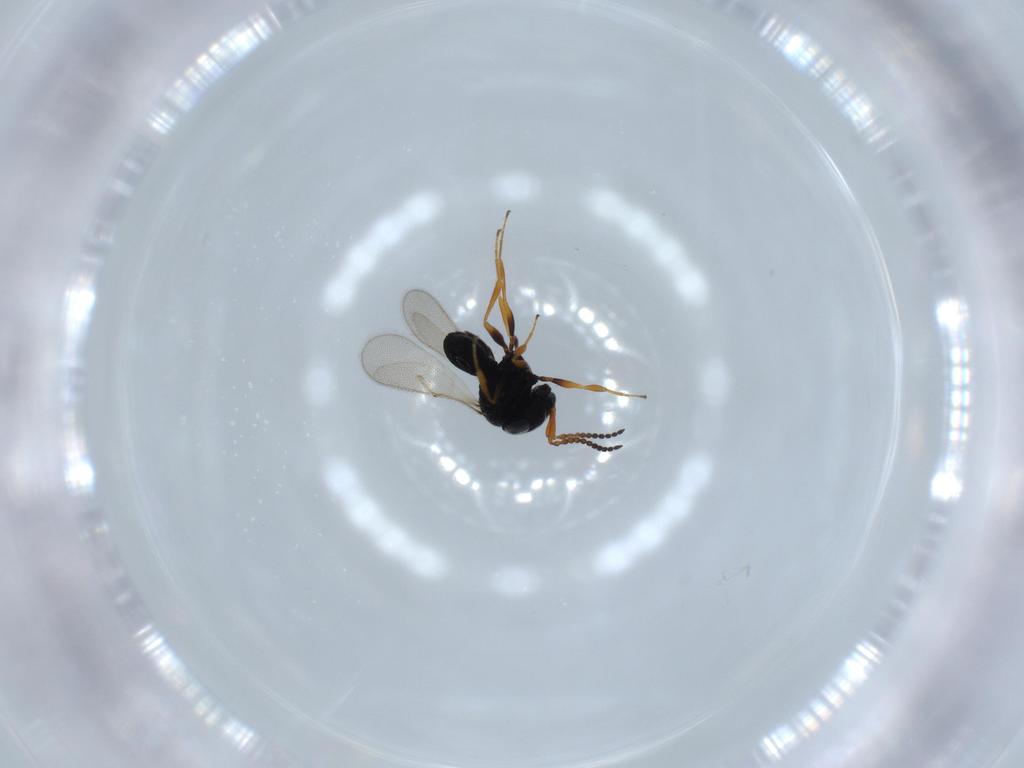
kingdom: Animalia
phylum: Arthropoda
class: Insecta
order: Hymenoptera
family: Scelionidae
